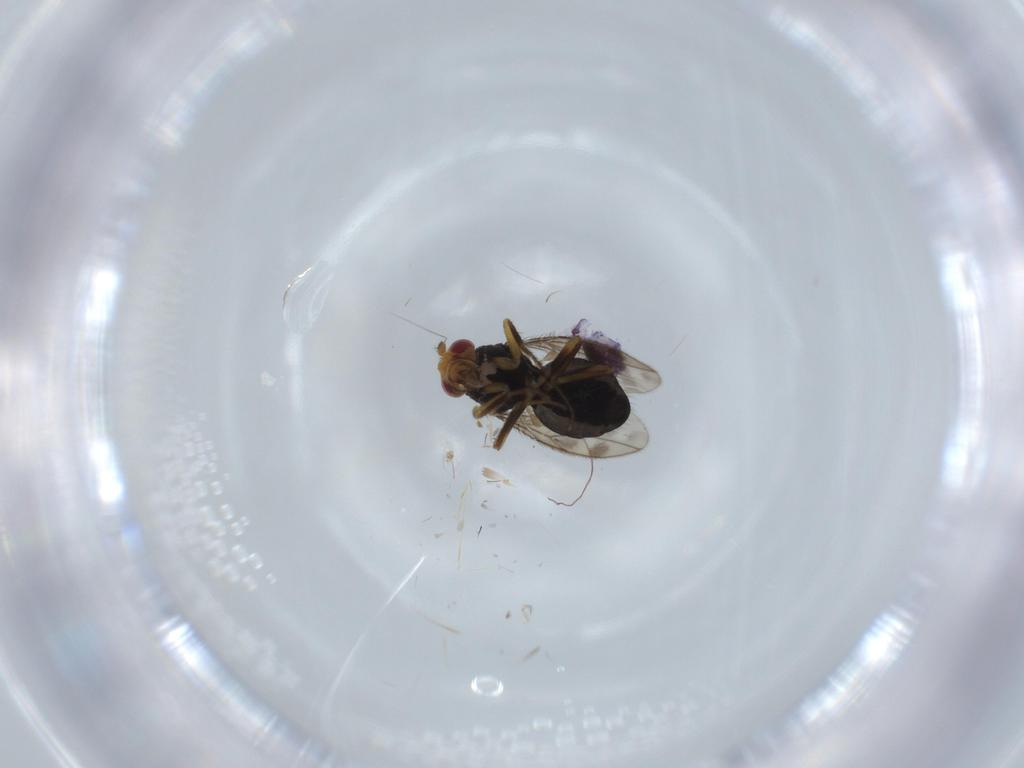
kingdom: Animalia
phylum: Arthropoda
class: Insecta
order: Diptera
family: Sphaeroceridae
